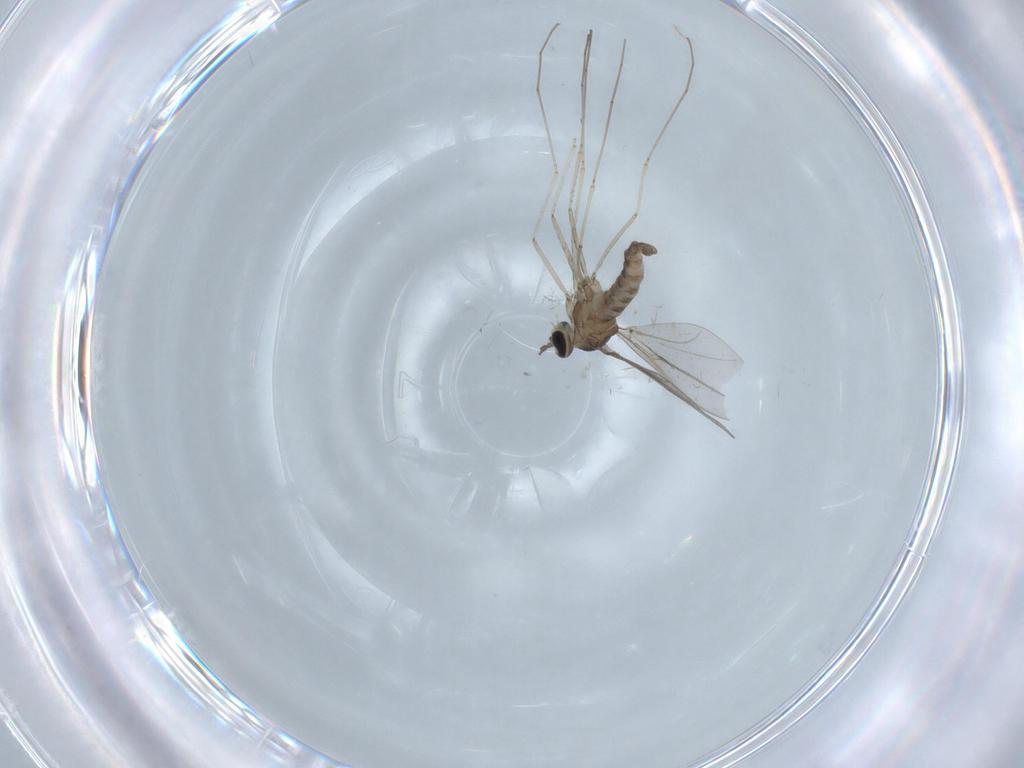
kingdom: Animalia
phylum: Arthropoda
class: Insecta
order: Diptera
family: Cecidomyiidae
